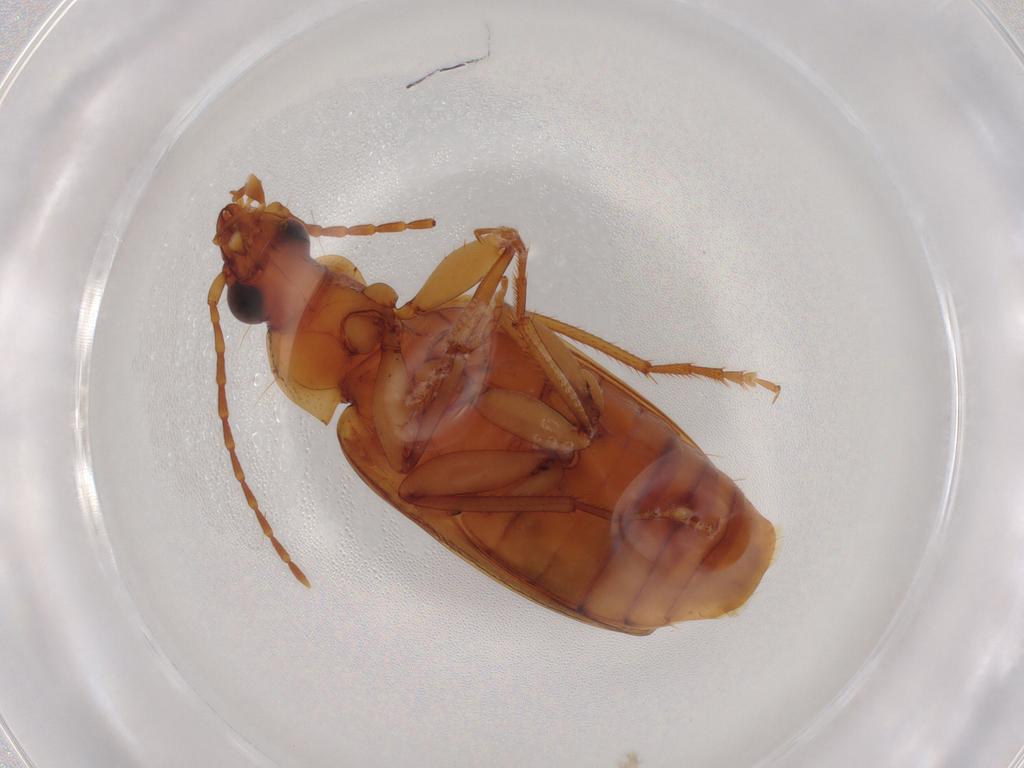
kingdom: Animalia
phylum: Arthropoda
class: Insecta
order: Coleoptera
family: Carabidae
